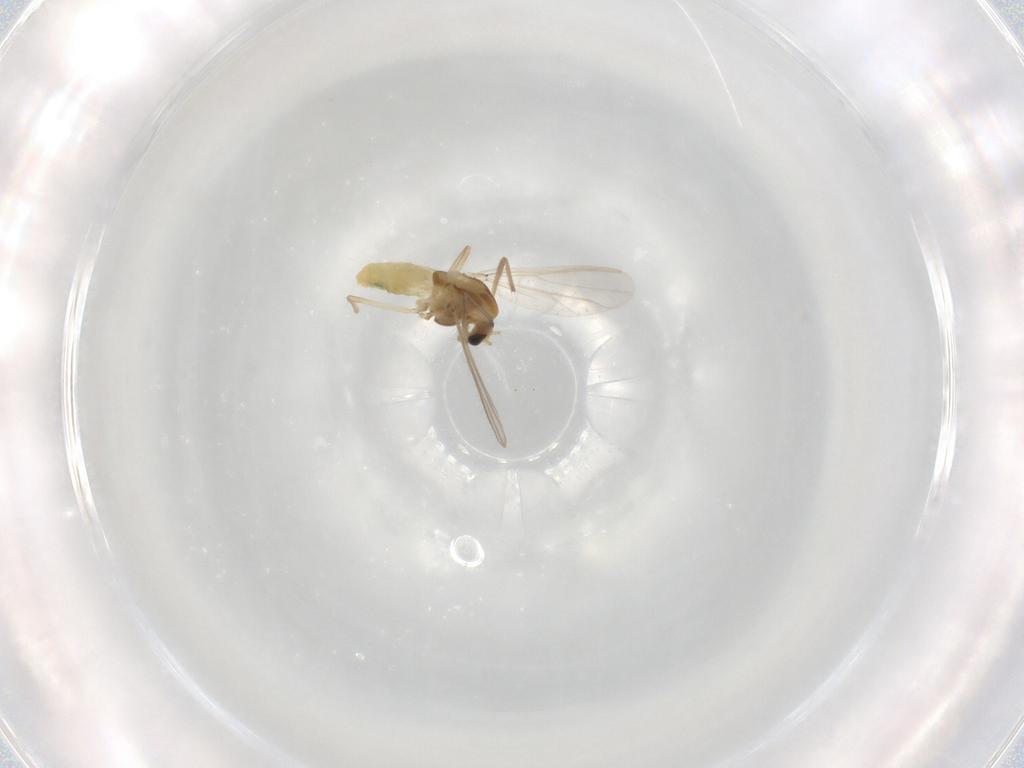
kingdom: Animalia
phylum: Arthropoda
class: Insecta
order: Diptera
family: Chironomidae
